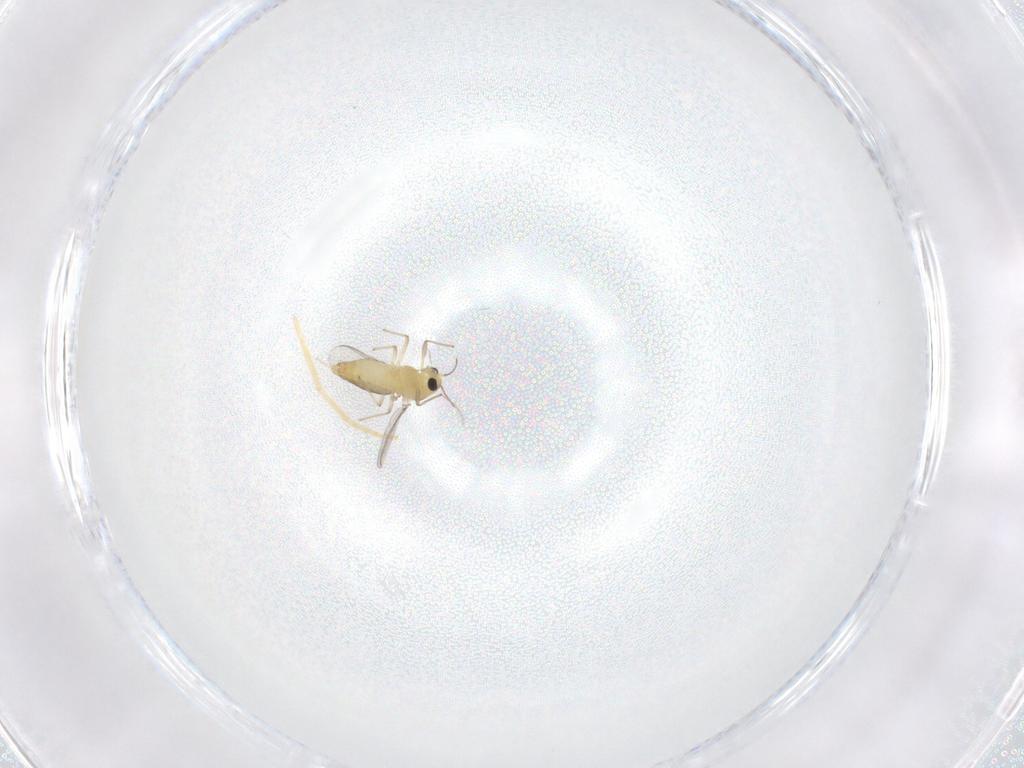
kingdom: Animalia
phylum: Arthropoda
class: Insecta
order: Diptera
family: Chironomidae
